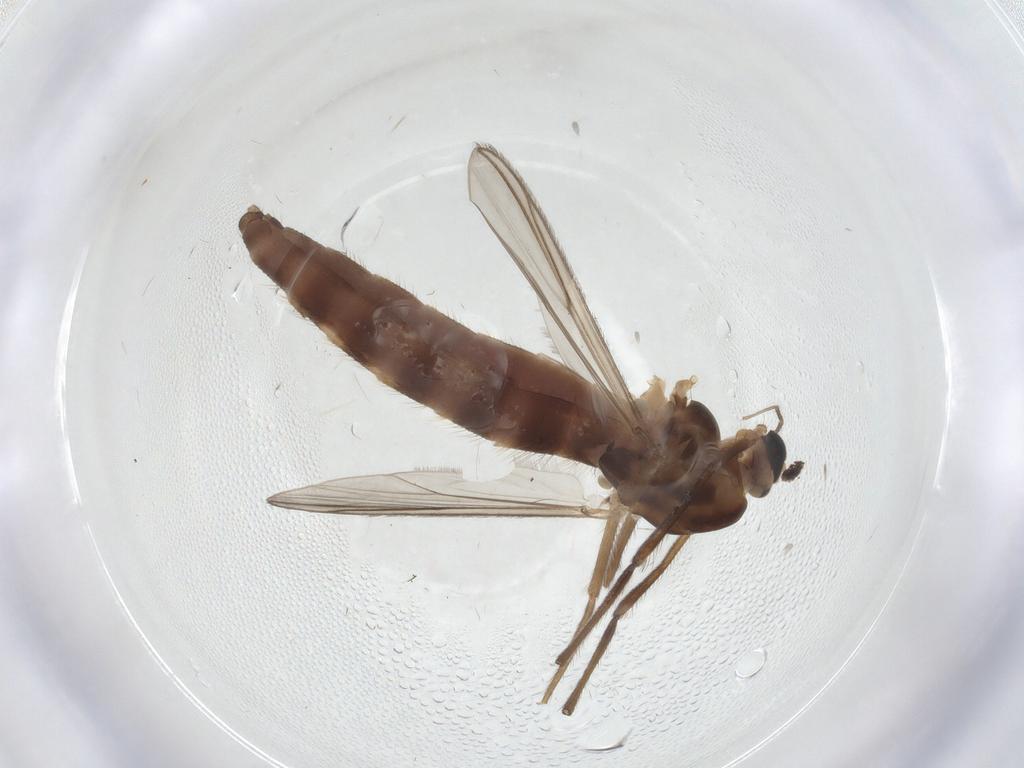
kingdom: Animalia
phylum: Arthropoda
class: Insecta
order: Diptera
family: Chironomidae
